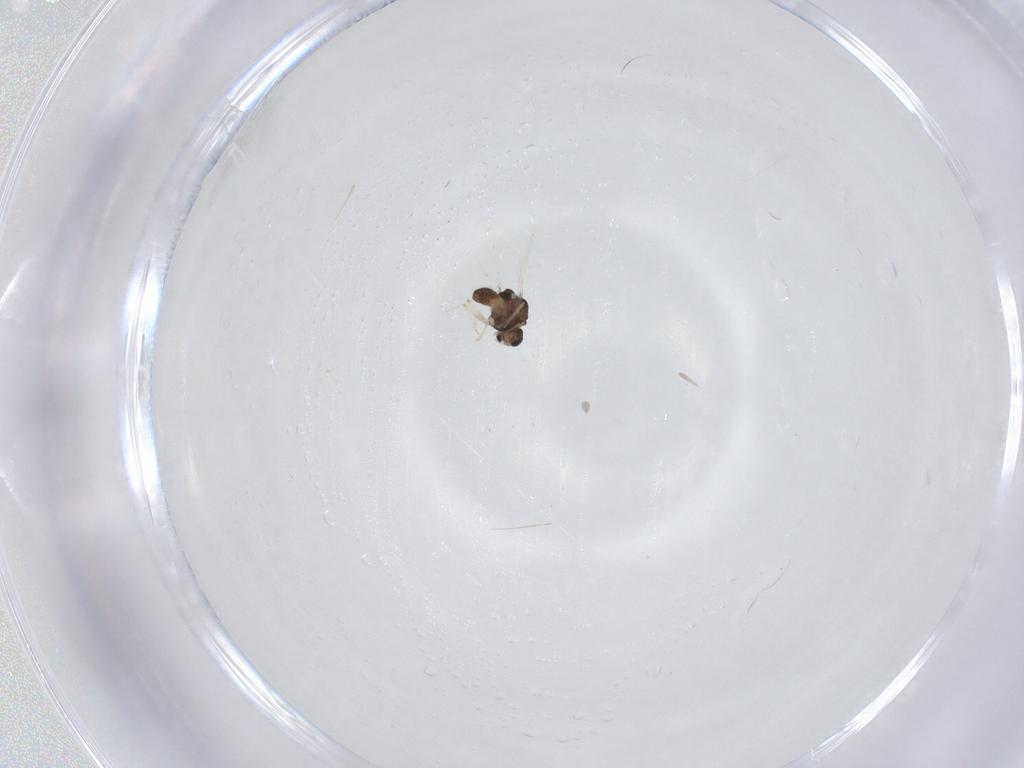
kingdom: Animalia
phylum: Arthropoda
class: Insecta
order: Diptera
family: Chironomidae
